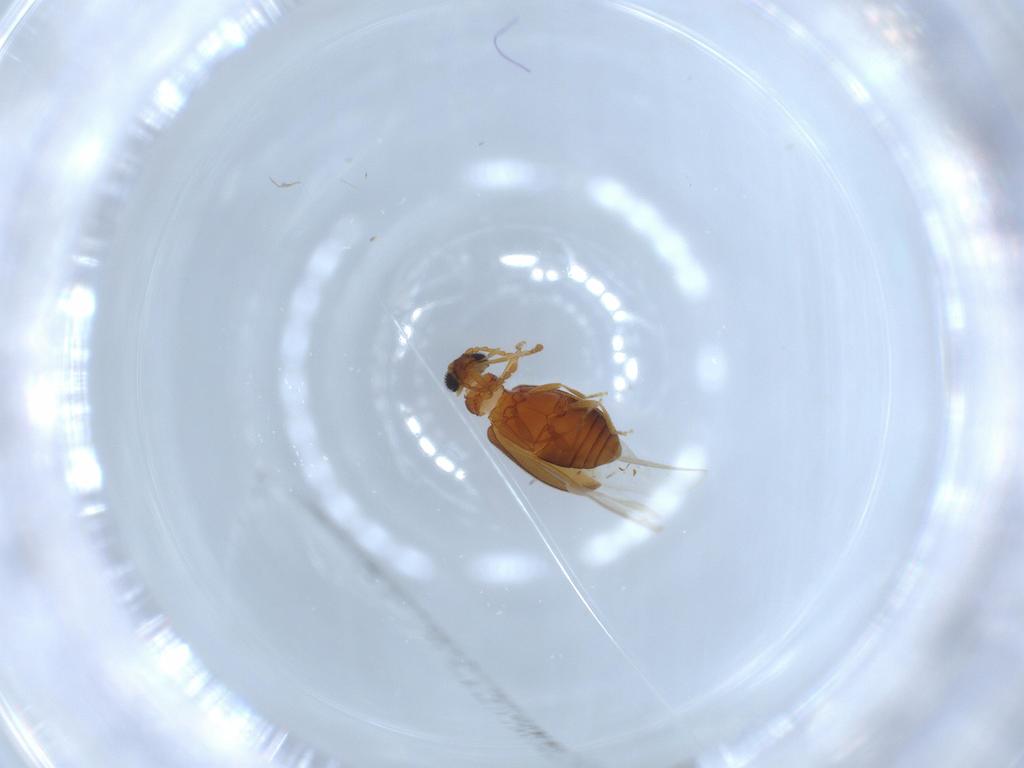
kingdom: Animalia
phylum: Arthropoda
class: Insecta
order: Coleoptera
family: Aderidae
